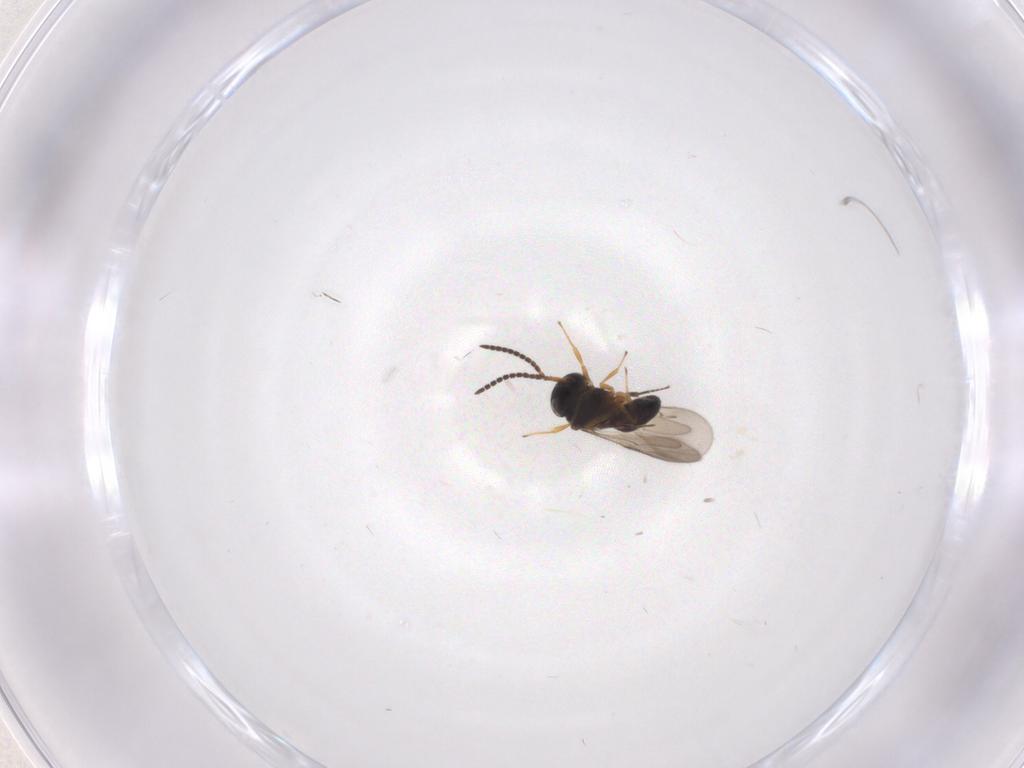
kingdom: Animalia
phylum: Arthropoda
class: Insecta
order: Hymenoptera
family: Scelionidae
